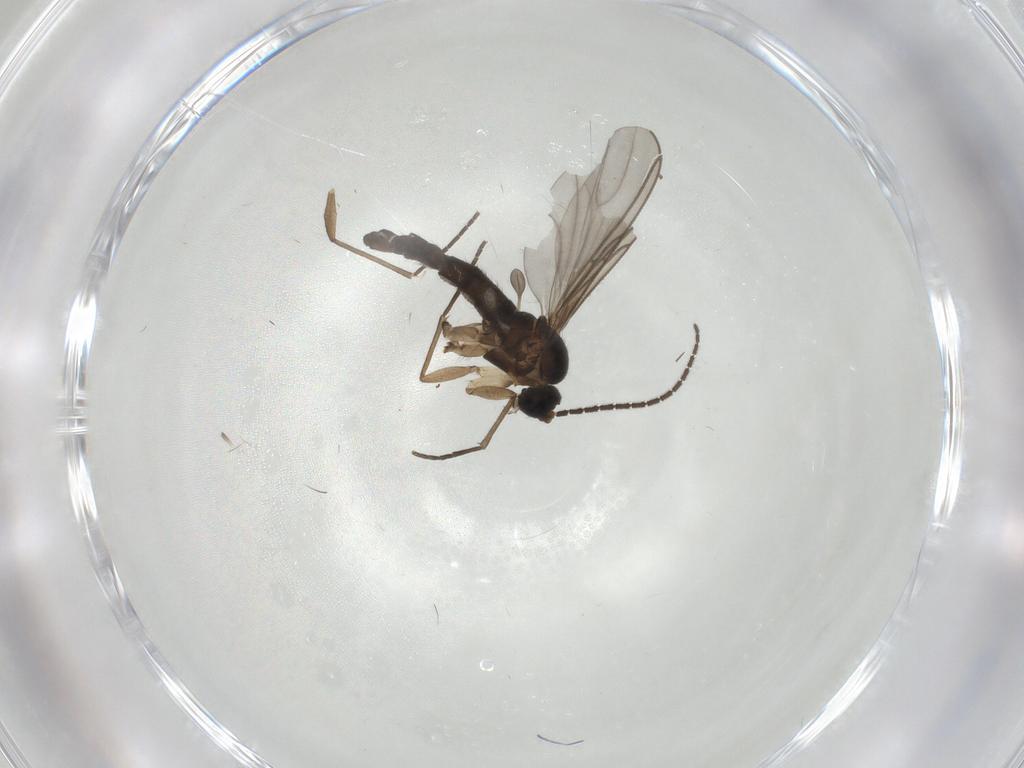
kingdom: Animalia
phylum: Arthropoda
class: Insecta
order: Diptera
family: Sciaridae
